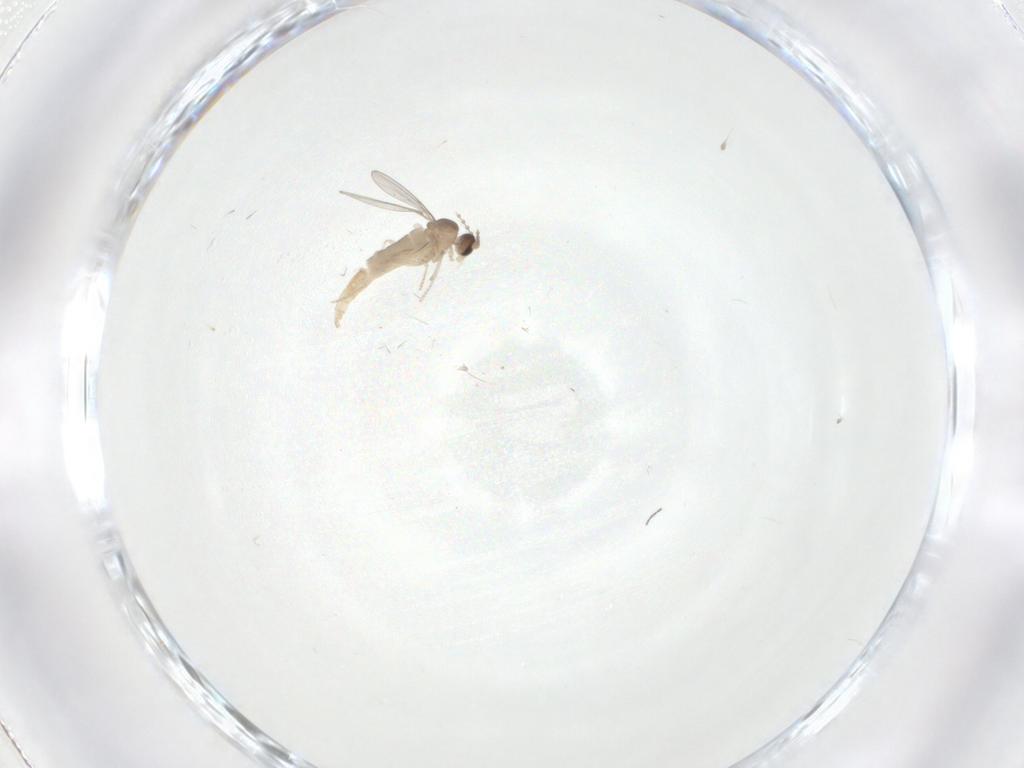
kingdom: Animalia
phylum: Arthropoda
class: Insecta
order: Diptera
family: Cecidomyiidae
